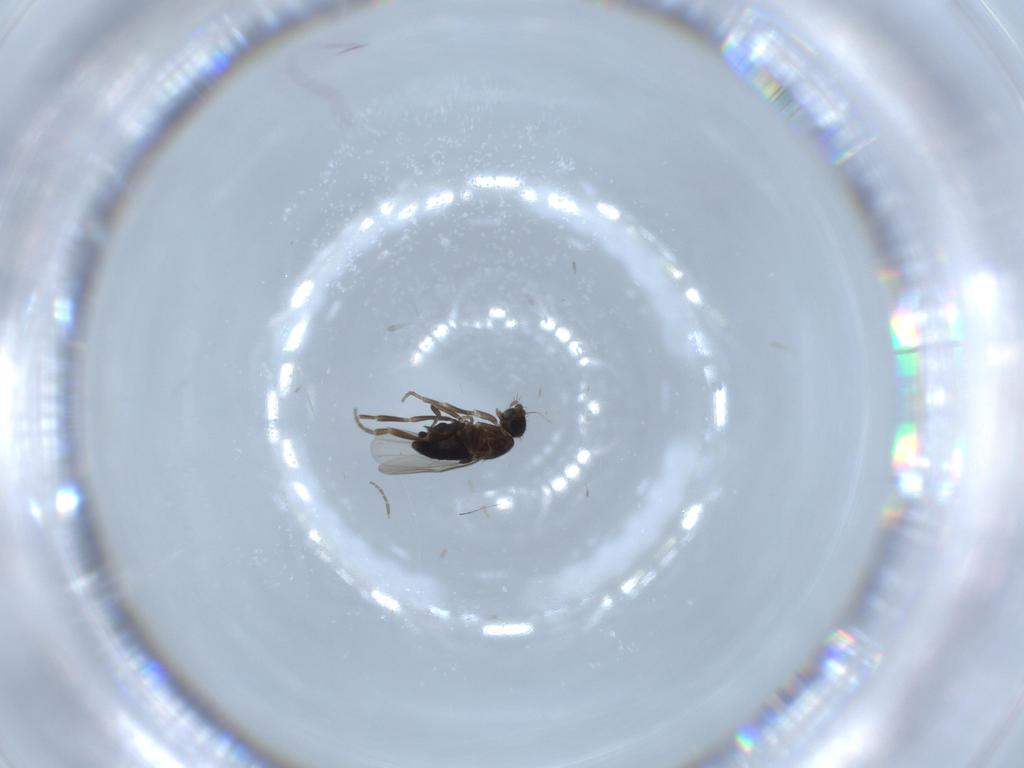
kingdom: Animalia
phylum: Arthropoda
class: Insecta
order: Diptera
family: Phoridae
